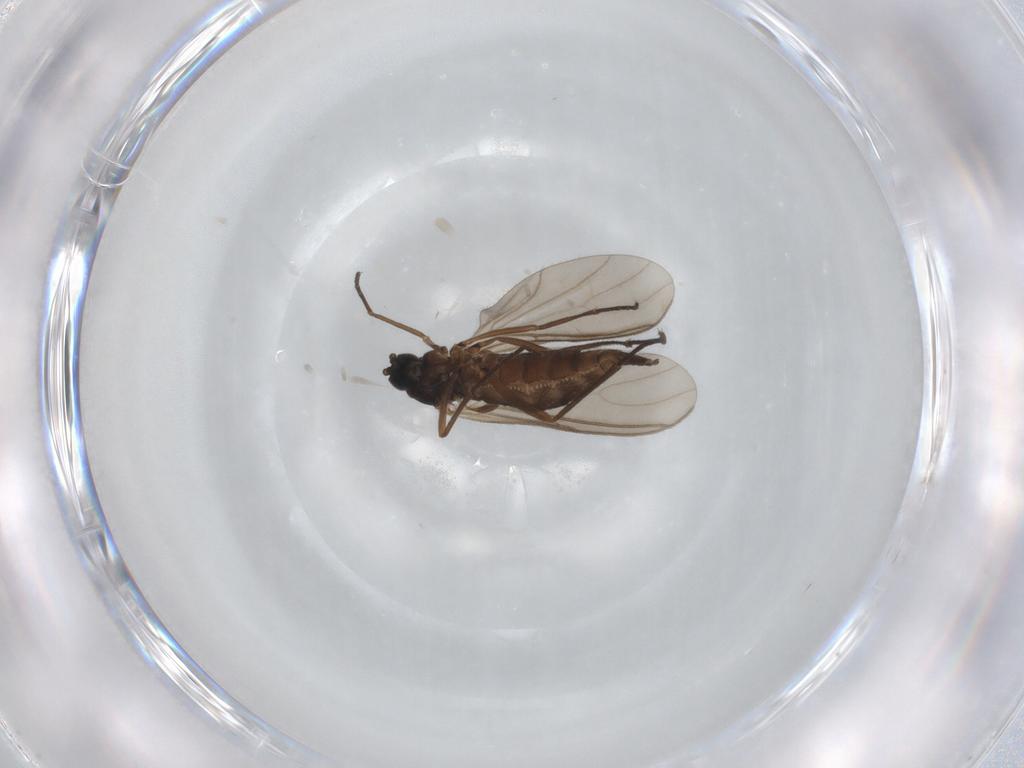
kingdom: Animalia
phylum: Arthropoda
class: Insecta
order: Diptera
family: Sciaridae
